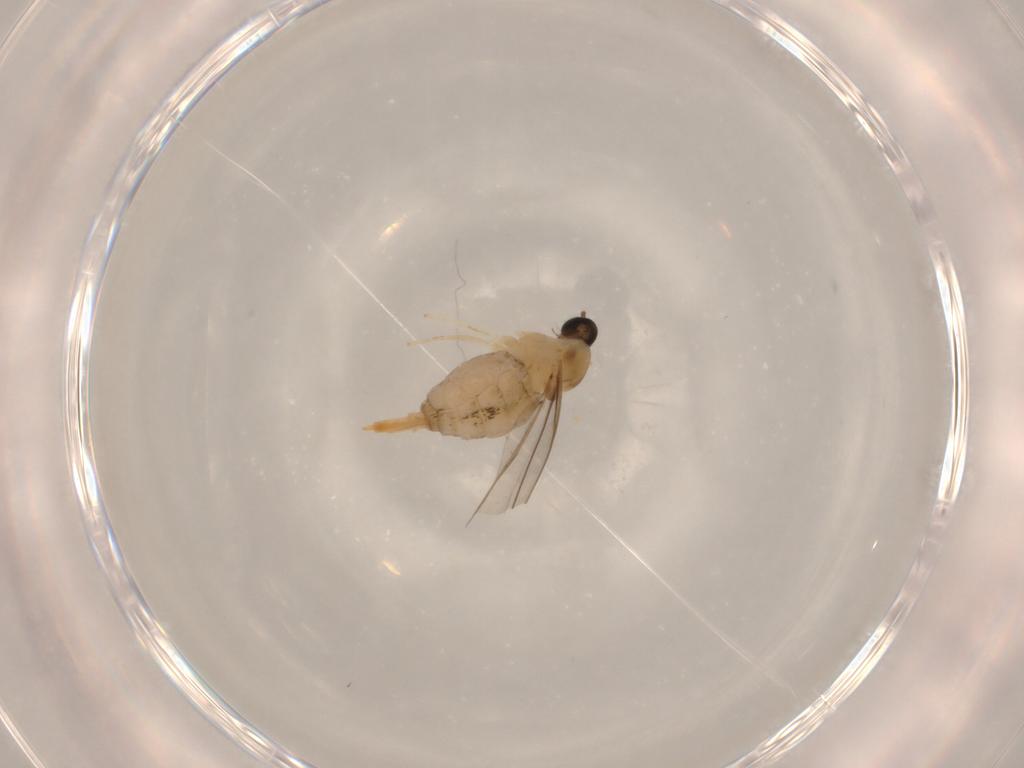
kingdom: Animalia
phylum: Arthropoda
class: Insecta
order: Diptera
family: Cecidomyiidae
